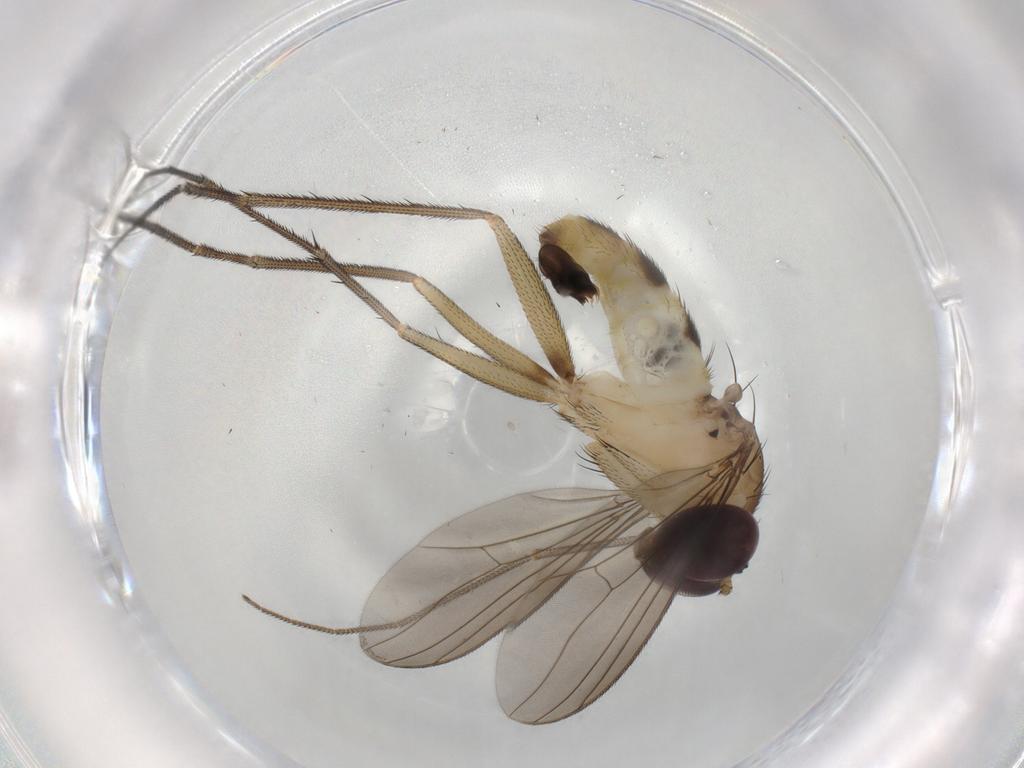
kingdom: Animalia
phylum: Arthropoda
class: Insecta
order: Diptera
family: Dolichopodidae
